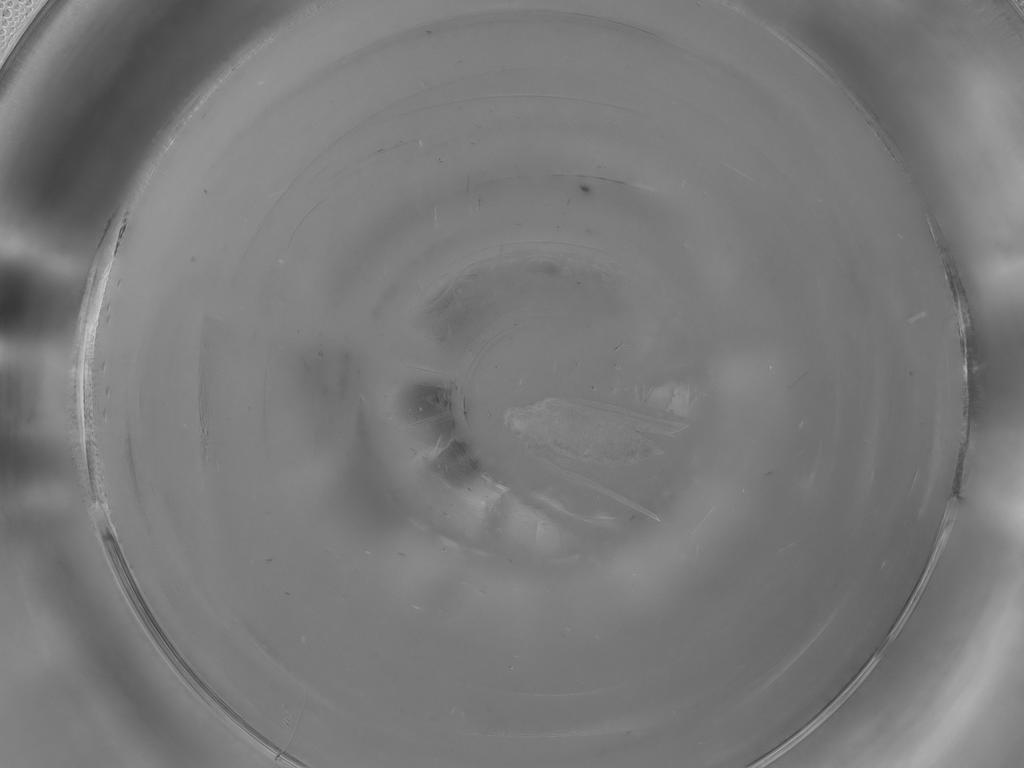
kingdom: Animalia
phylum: Arthropoda
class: Insecta
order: Diptera
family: Psychodidae
